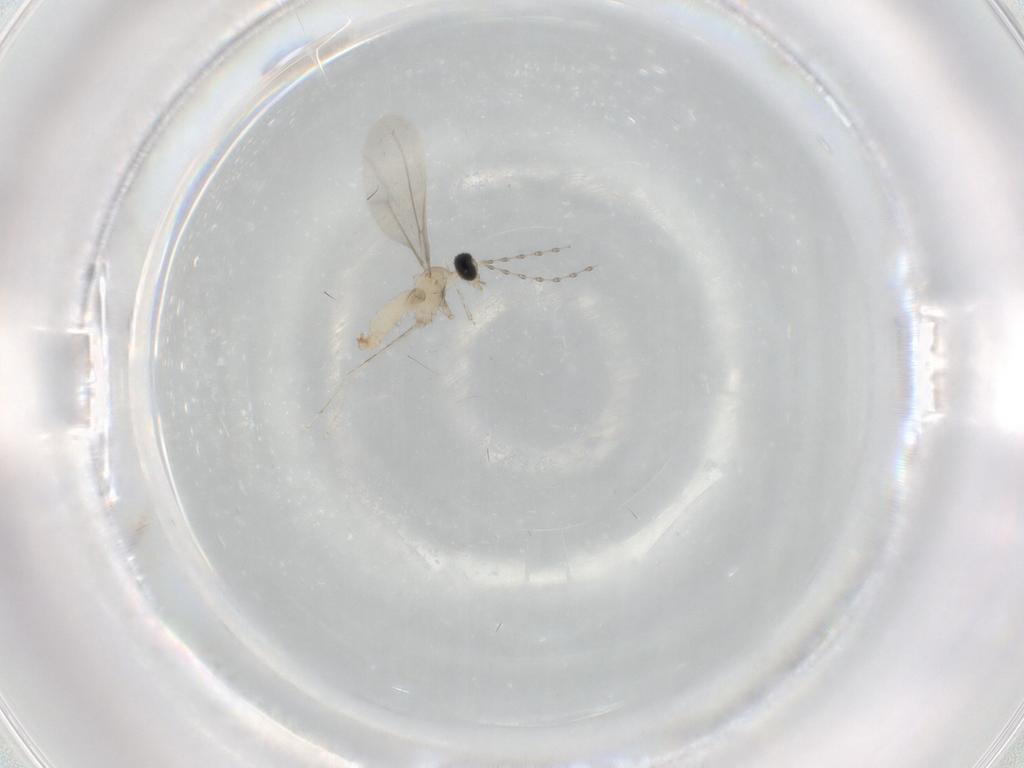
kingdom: Animalia
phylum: Arthropoda
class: Insecta
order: Diptera
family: Cecidomyiidae
